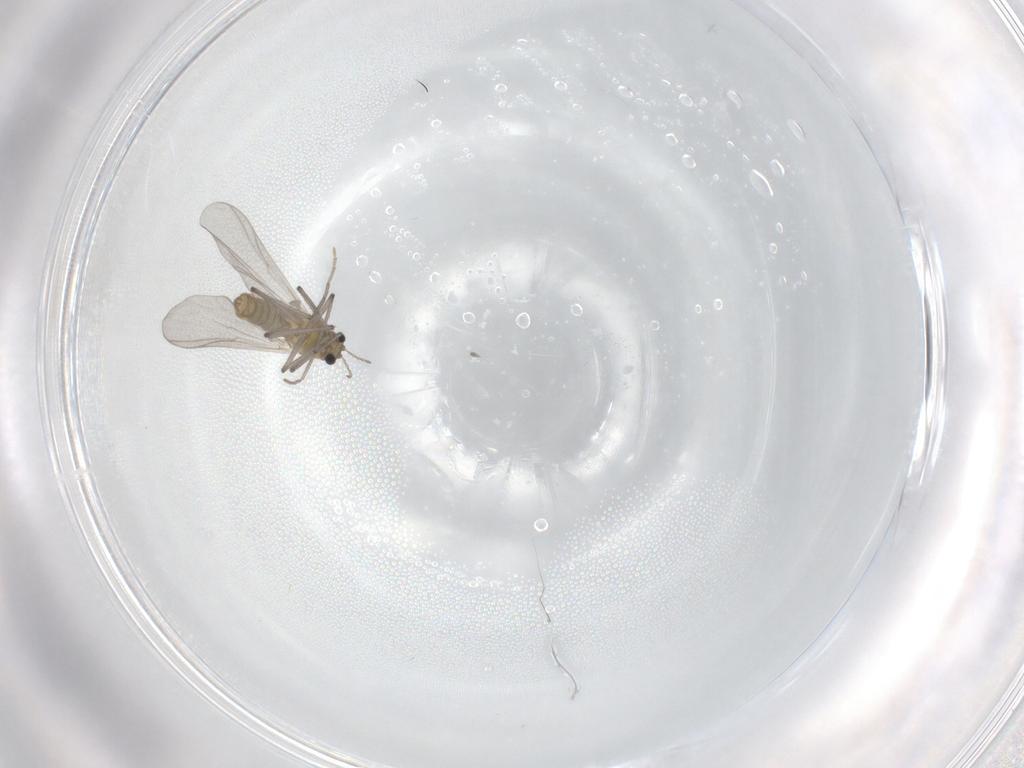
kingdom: Animalia
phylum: Arthropoda
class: Insecta
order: Diptera
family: Chironomidae
